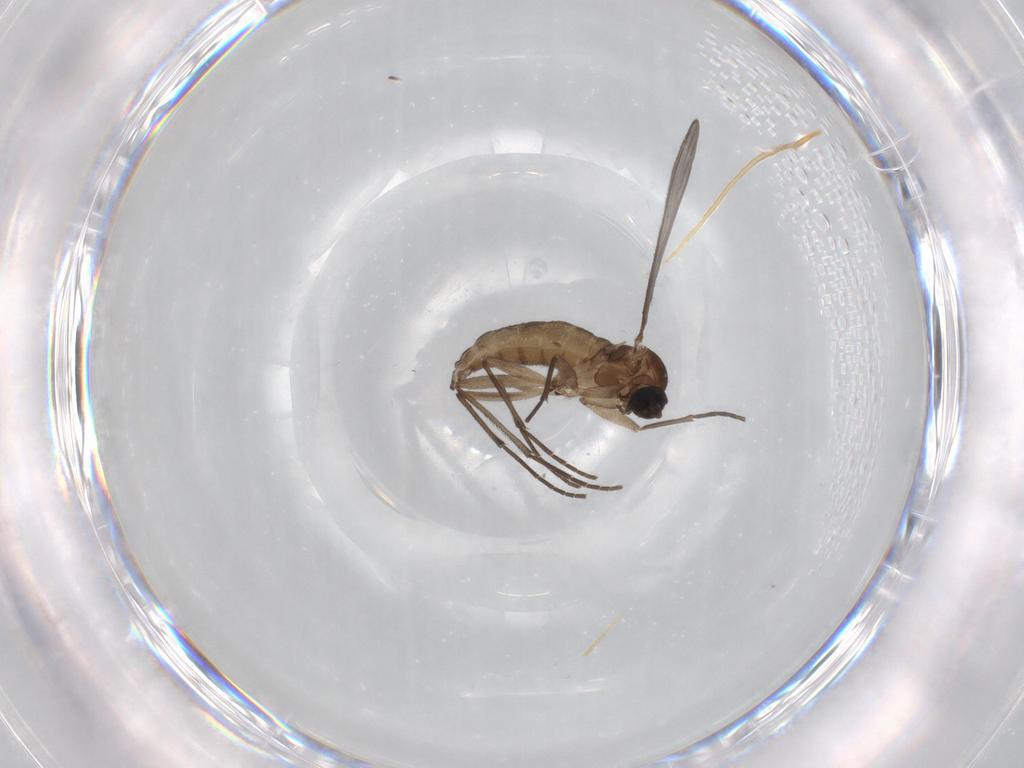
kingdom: Animalia
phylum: Arthropoda
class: Insecta
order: Diptera
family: Sciaridae
